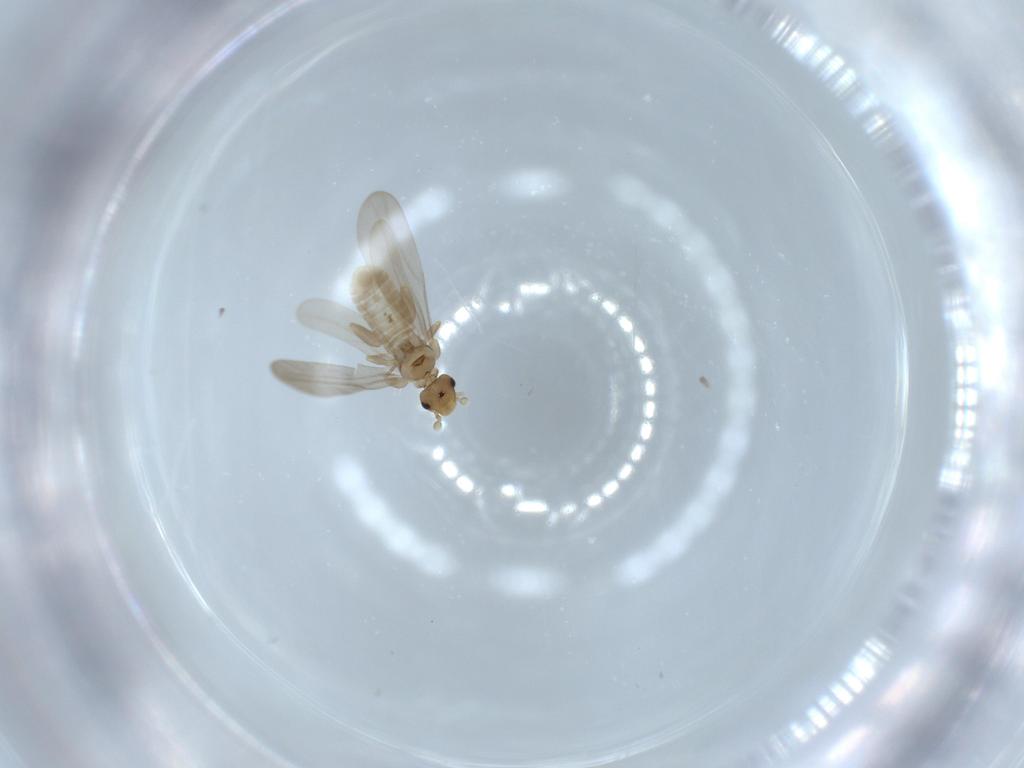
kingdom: Animalia
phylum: Arthropoda
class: Insecta
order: Psocodea
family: Liposcelididae
